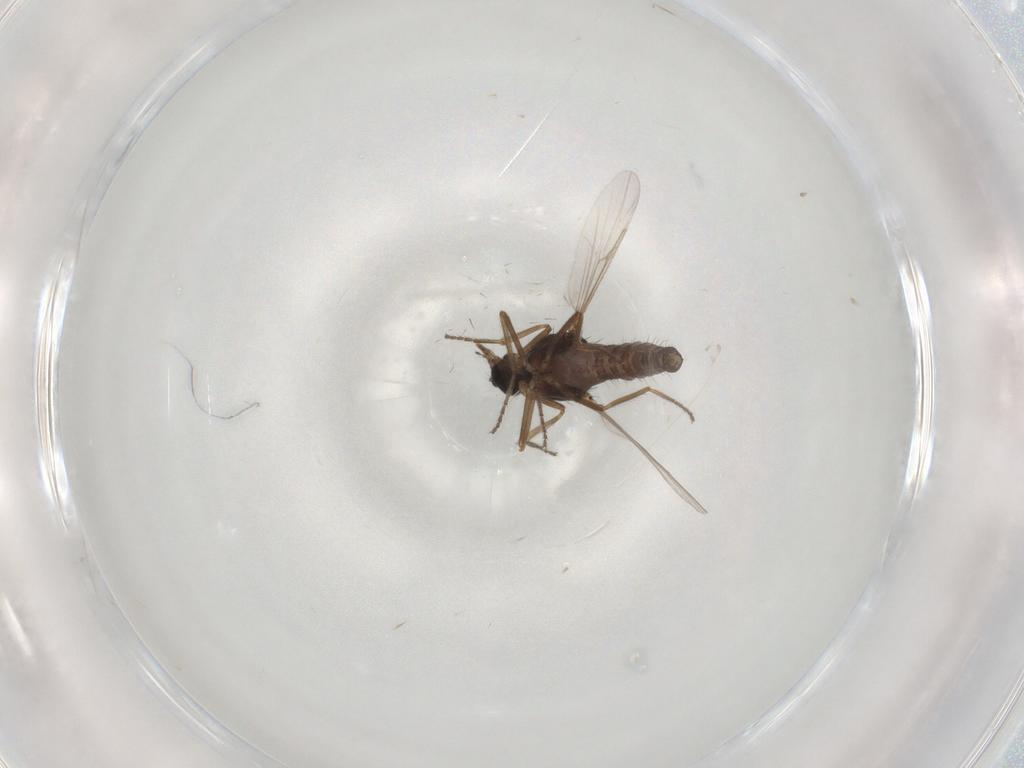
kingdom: Animalia
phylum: Arthropoda
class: Insecta
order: Diptera
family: Ceratopogonidae
